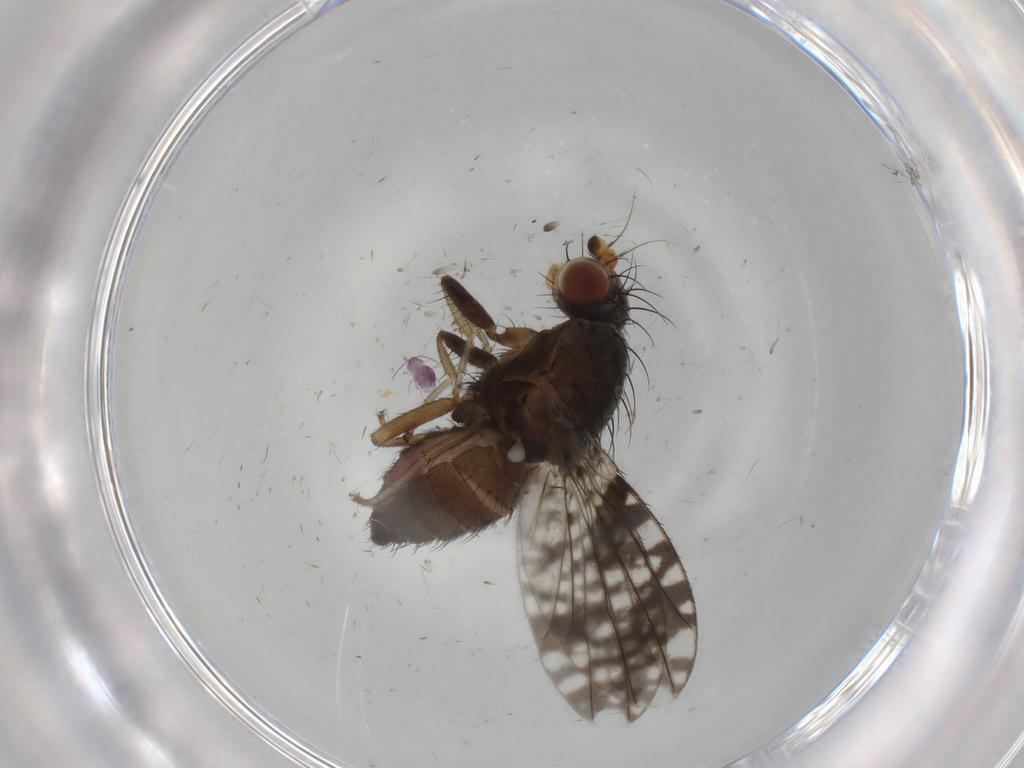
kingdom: Animalia
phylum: Arthropoda
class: Insecta
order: Diptera
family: Tephritidae
